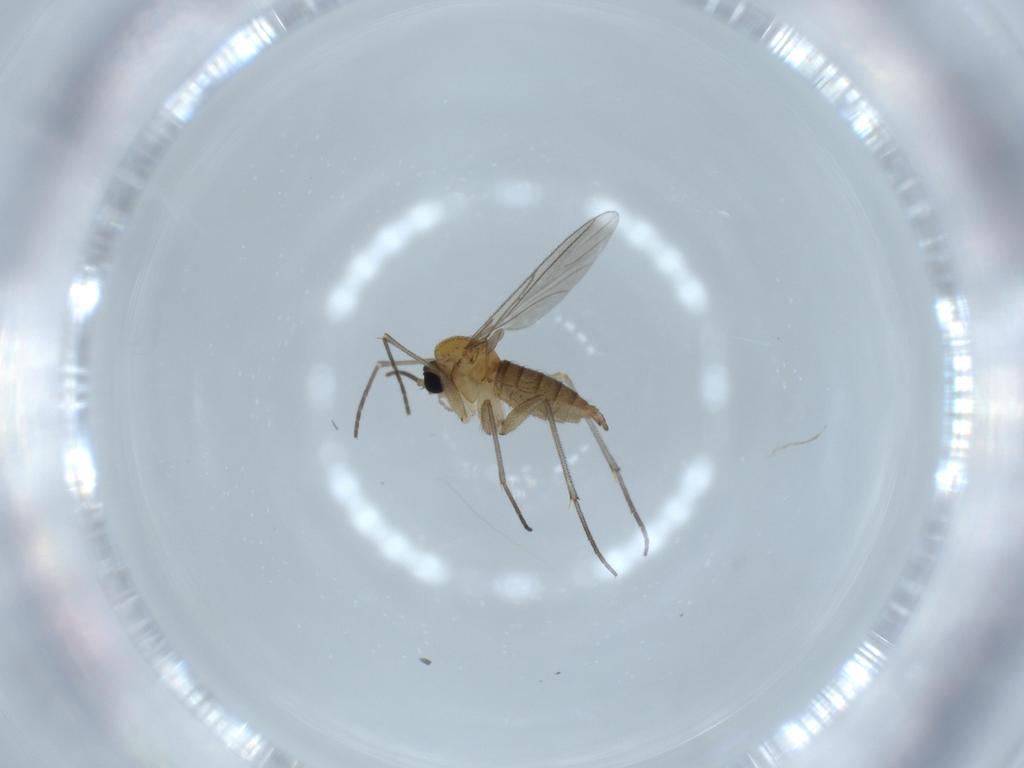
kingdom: Animalia
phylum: Arthropoda
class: Insecta
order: Diptera
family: Sciaridae
